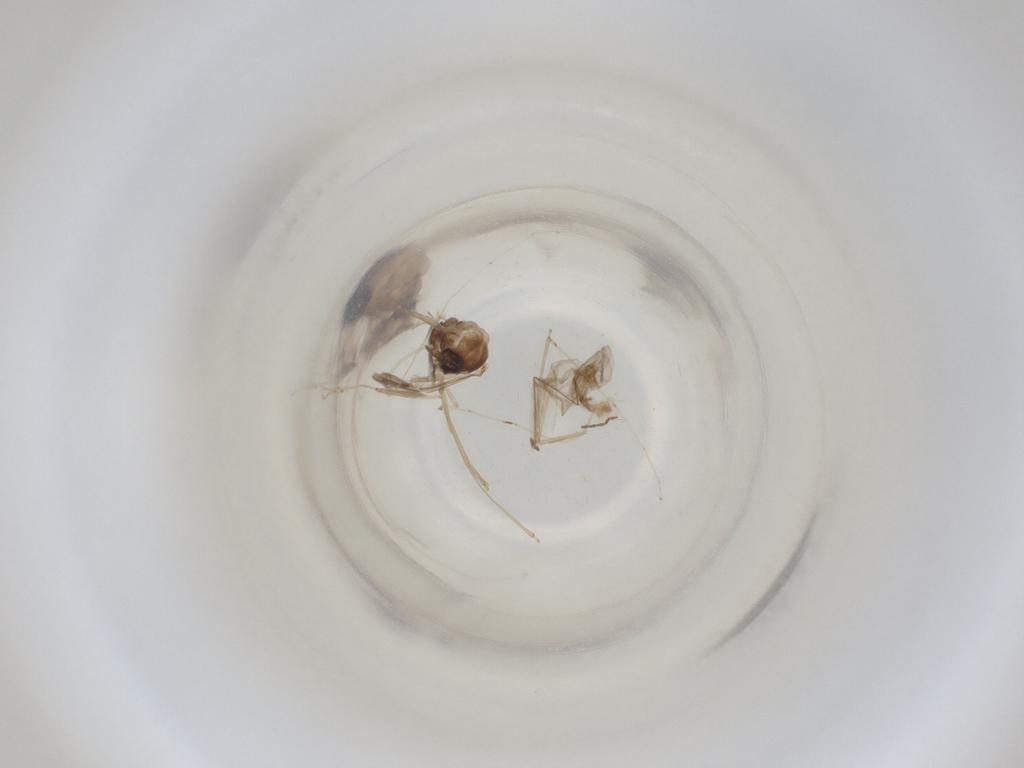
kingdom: Animalia
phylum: Arthropoda
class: Insecta
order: Diptera
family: Cecidomyiidae
